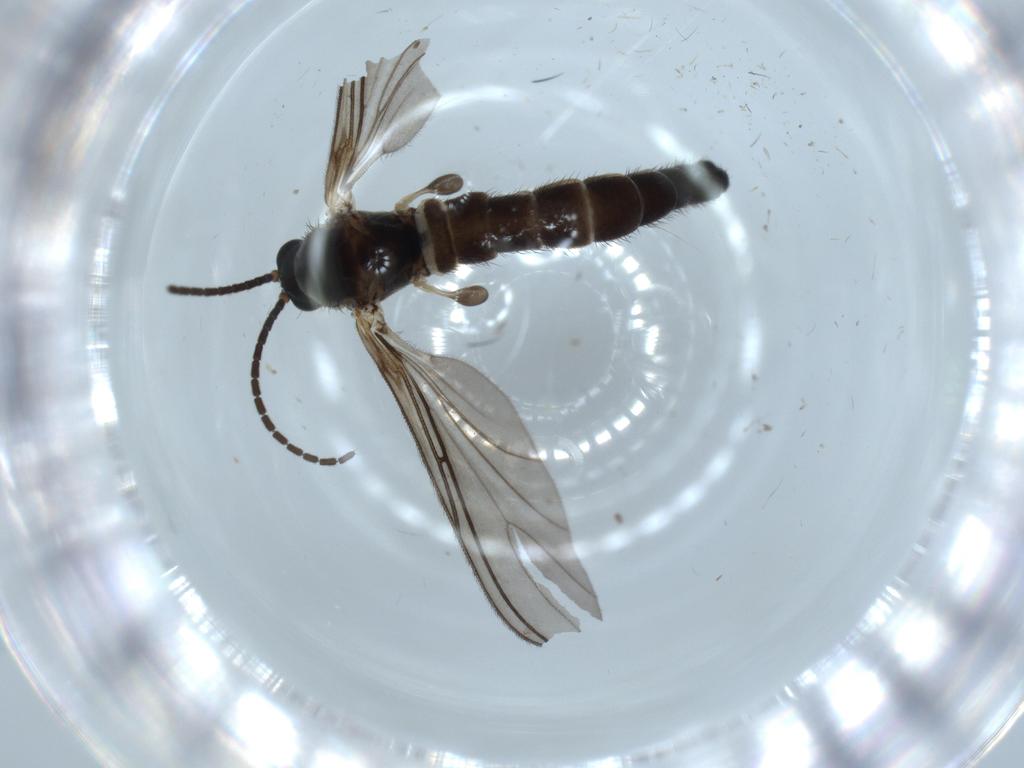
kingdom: Animalia
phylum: Arthropoda
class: Insecta
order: Diptera
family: Sciaridae
